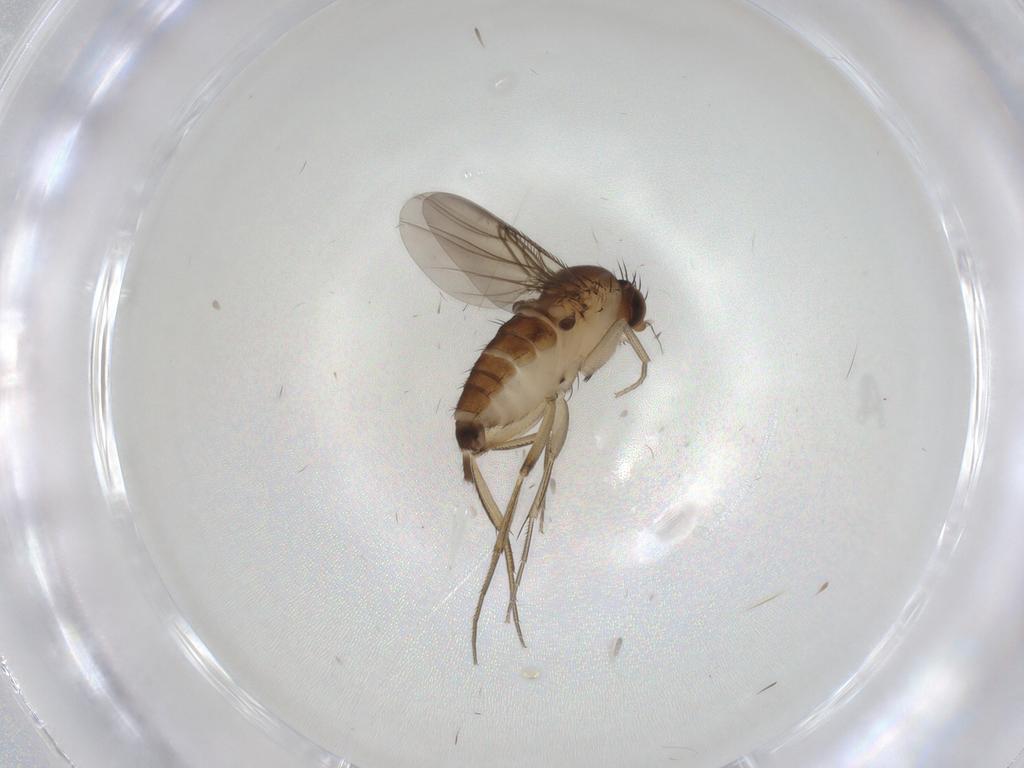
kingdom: Animalia
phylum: Arthropoda
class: Insecta
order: Diptera
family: Phoridae
